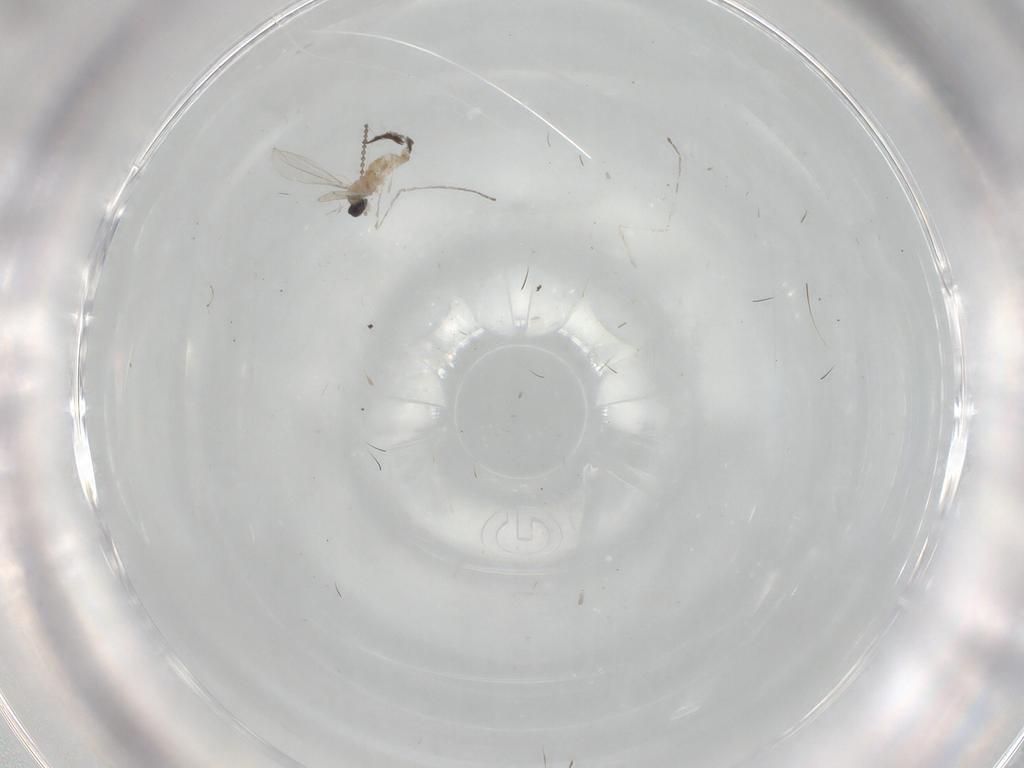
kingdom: Animalia
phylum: Arthropoda
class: Insecta
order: Diptera
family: Cecidomyiidae
